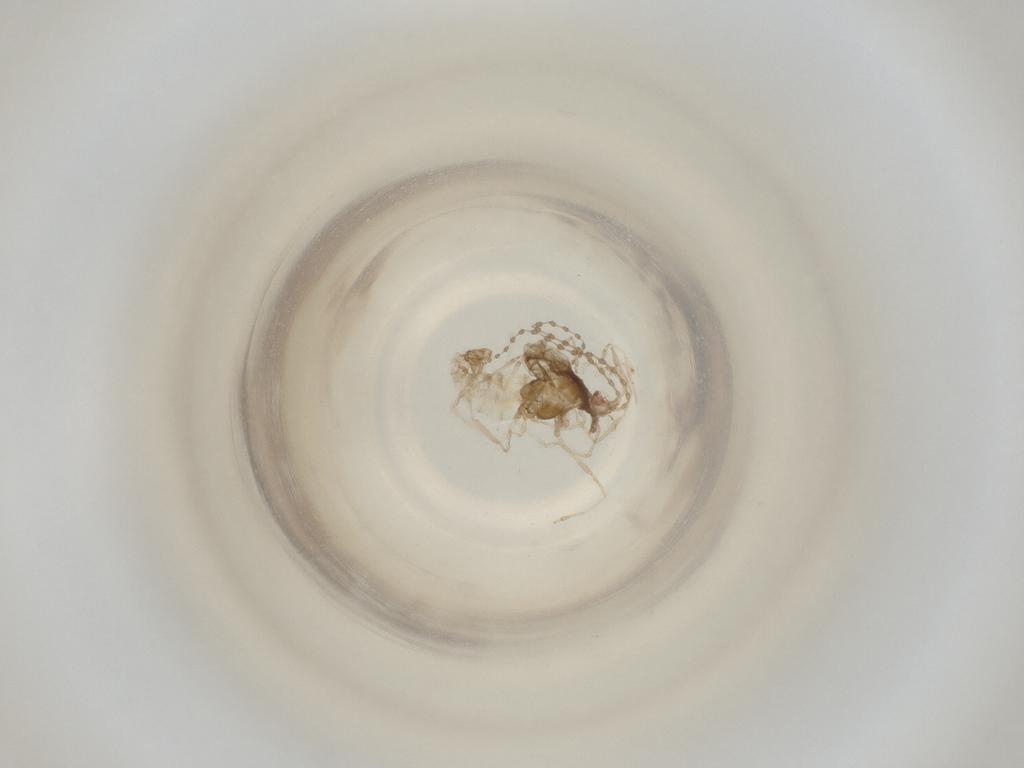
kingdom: Animalia
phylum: Arthropoda
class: Insecta
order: Diptera
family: Cecidomyiidae
